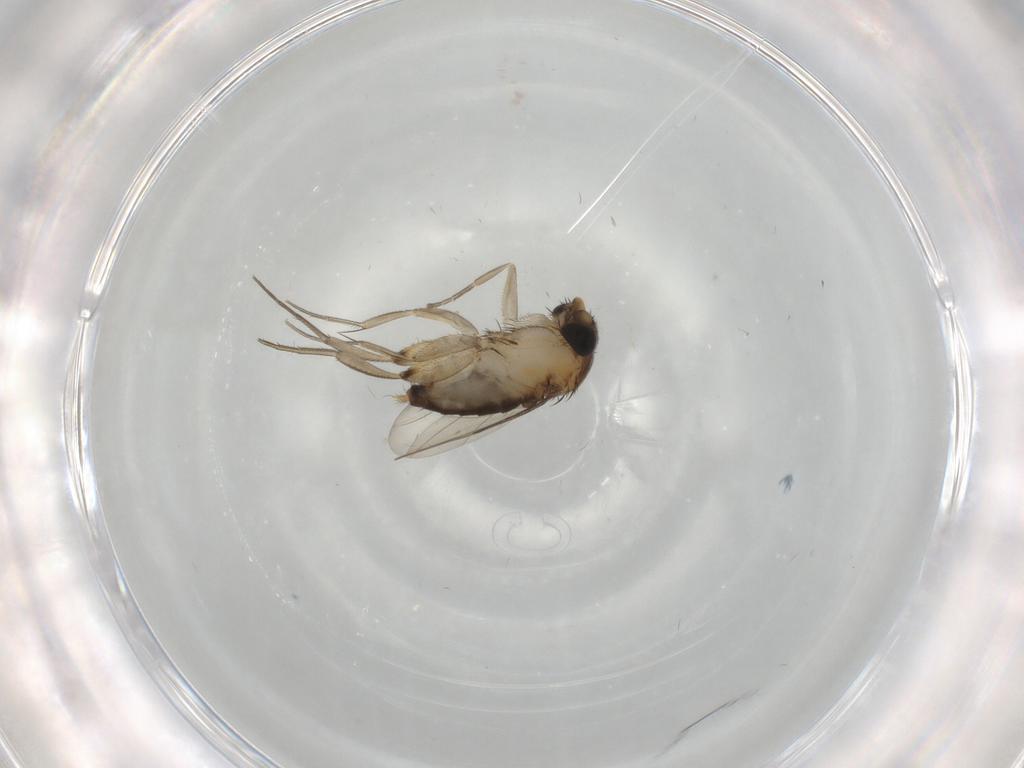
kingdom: Animalia
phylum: Arthropoda
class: Insecta
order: Diptera
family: Phoridae
